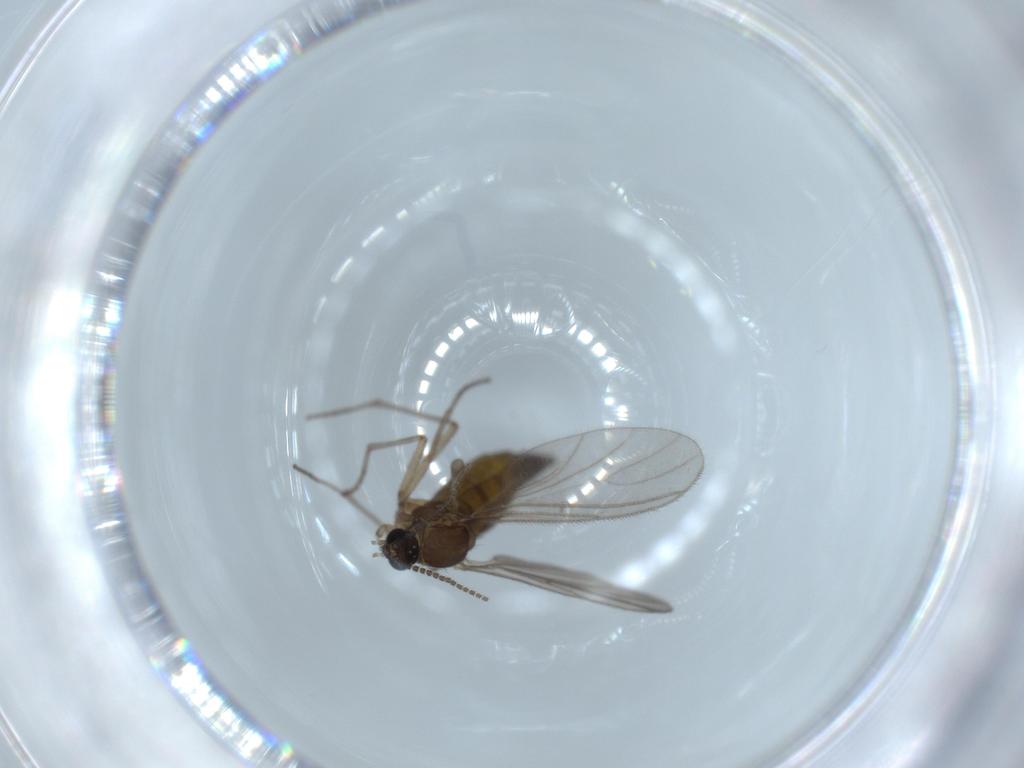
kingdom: Animalia
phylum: Arthropoda
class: Insecta
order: Diptera
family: Sciaridae
